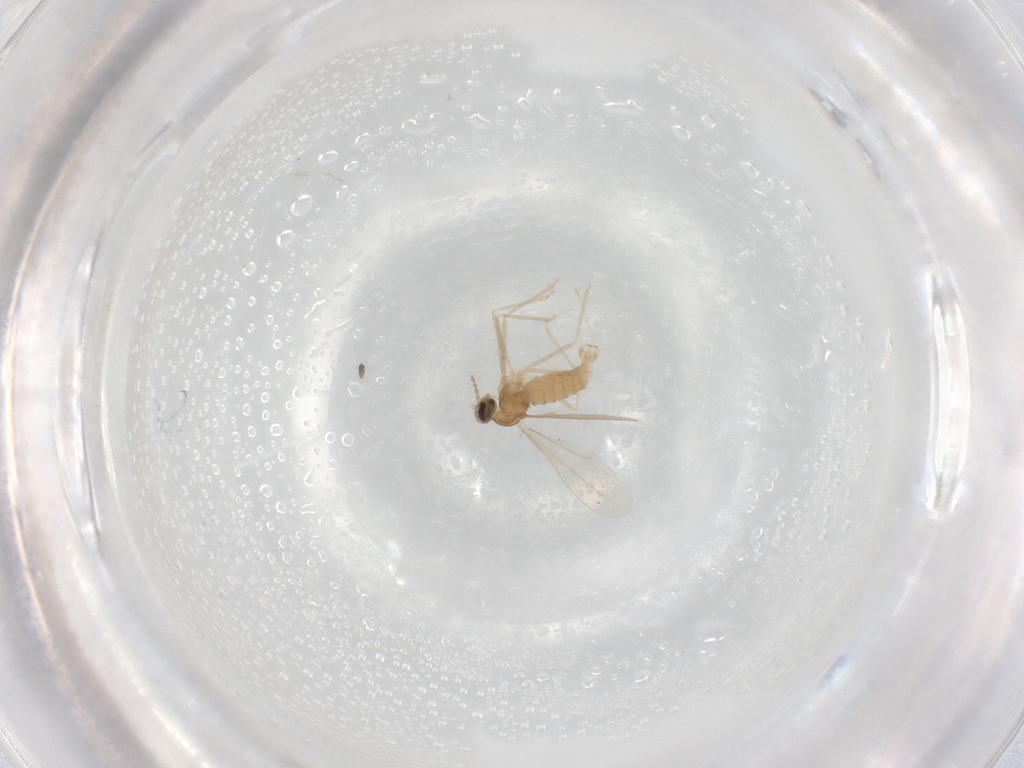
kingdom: Animalia
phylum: Arthropoda
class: Insecta
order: Diptera
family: Cecidomyiidae
